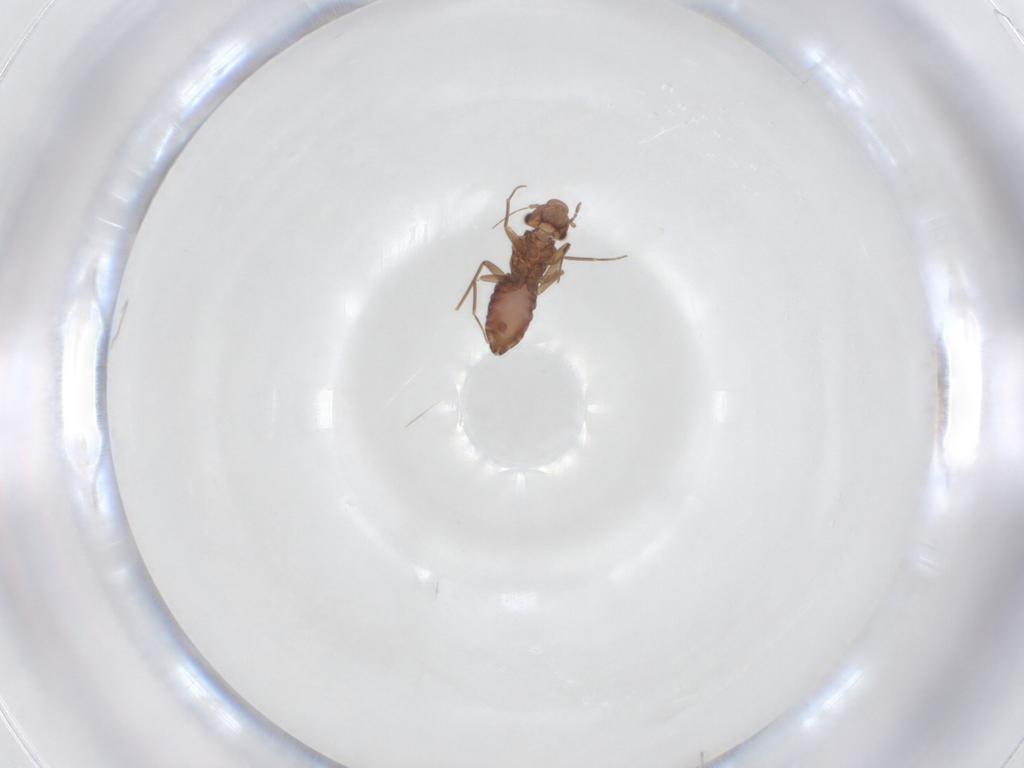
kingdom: Animalia
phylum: Arthropoda
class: Insecta
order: Psocodea
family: Lepidopsocidae
